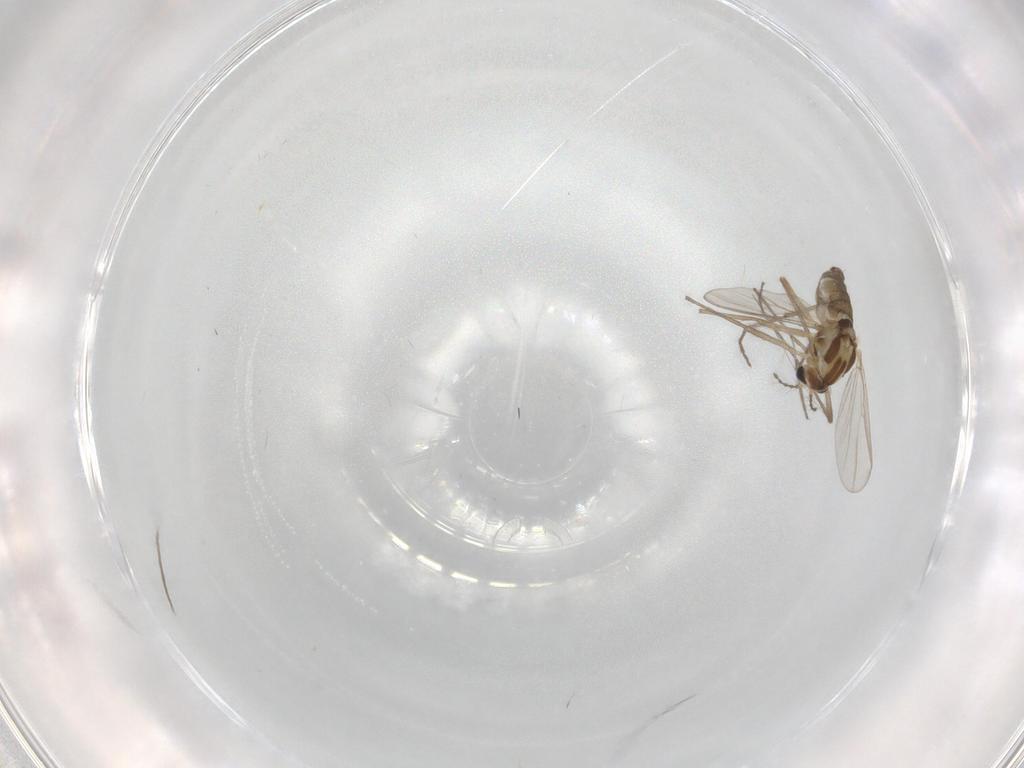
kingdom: Animalia
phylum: Arthropoda
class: Insecta
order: Diptera
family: Chironomidae
